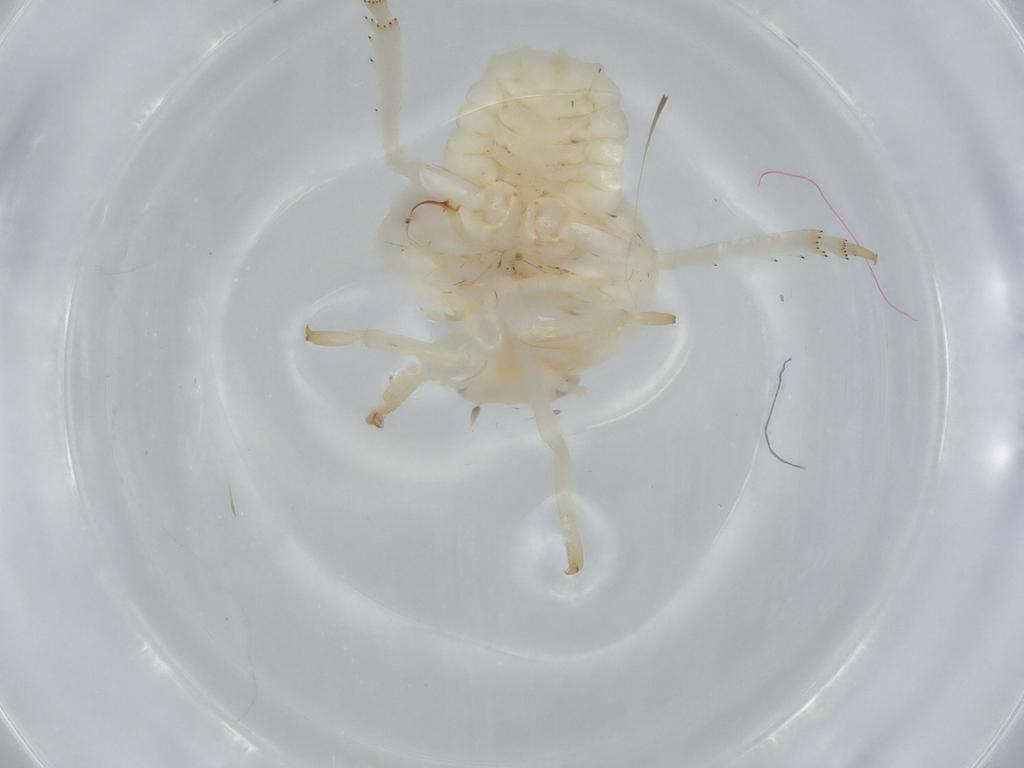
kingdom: Animalia
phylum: Arthropoda
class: Insecta
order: Hemiptera
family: Flatidae
